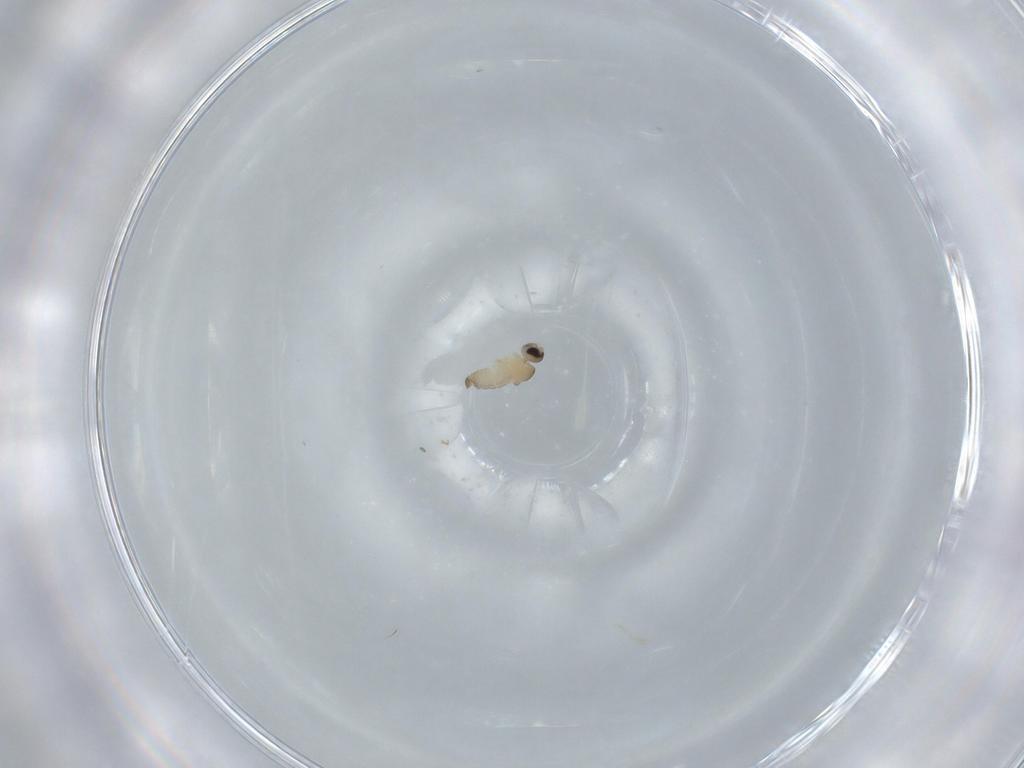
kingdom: Animalia
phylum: Arthropoda
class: Insecta
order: Diptera
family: Cecidomyiidae
